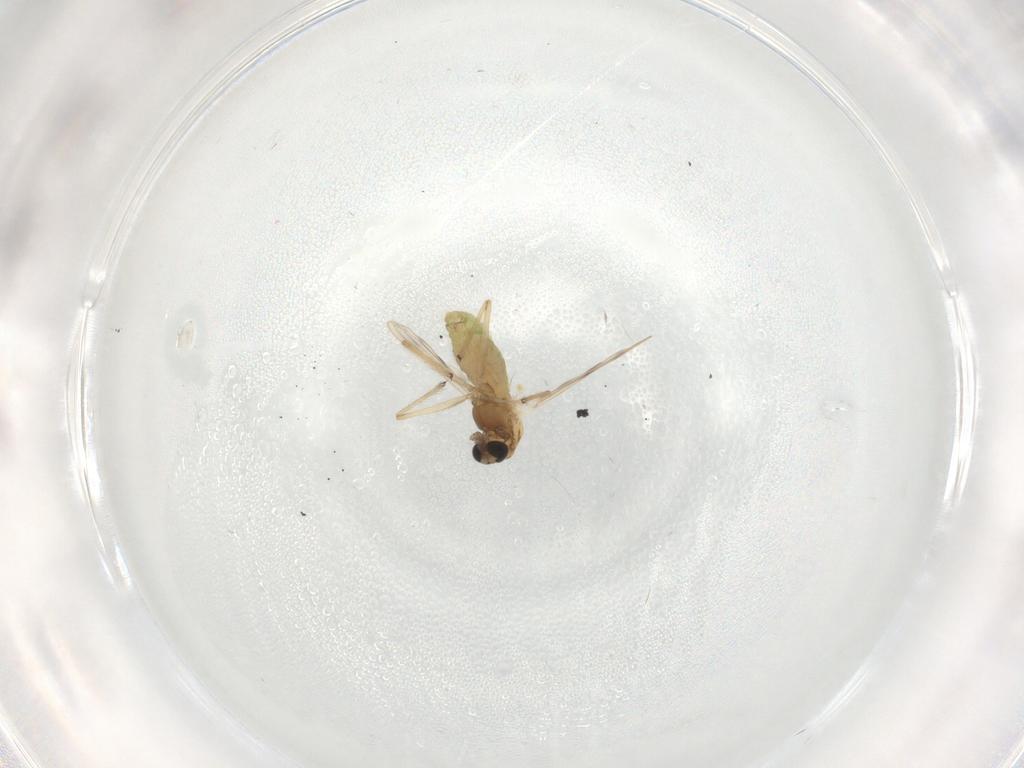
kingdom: Animalia
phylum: Arthropoda
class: Insecta
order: Diptera
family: Chironomidae
